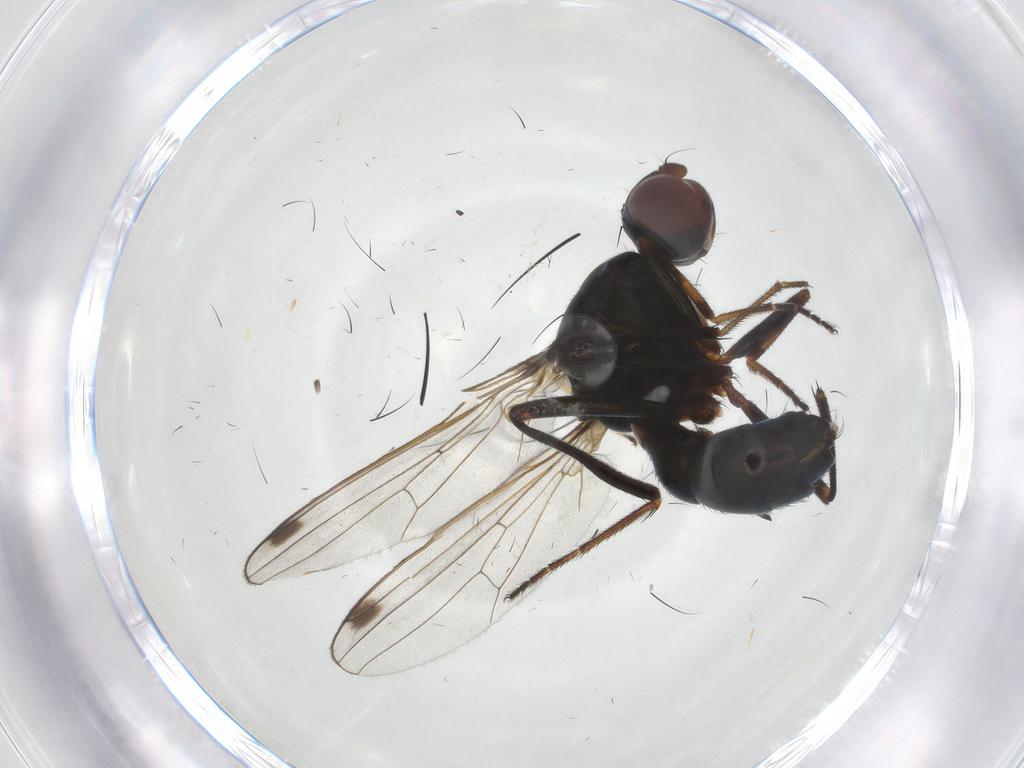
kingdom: Animalia
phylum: Arthropoda
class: Insecta
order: Diptera
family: Sepsidae
